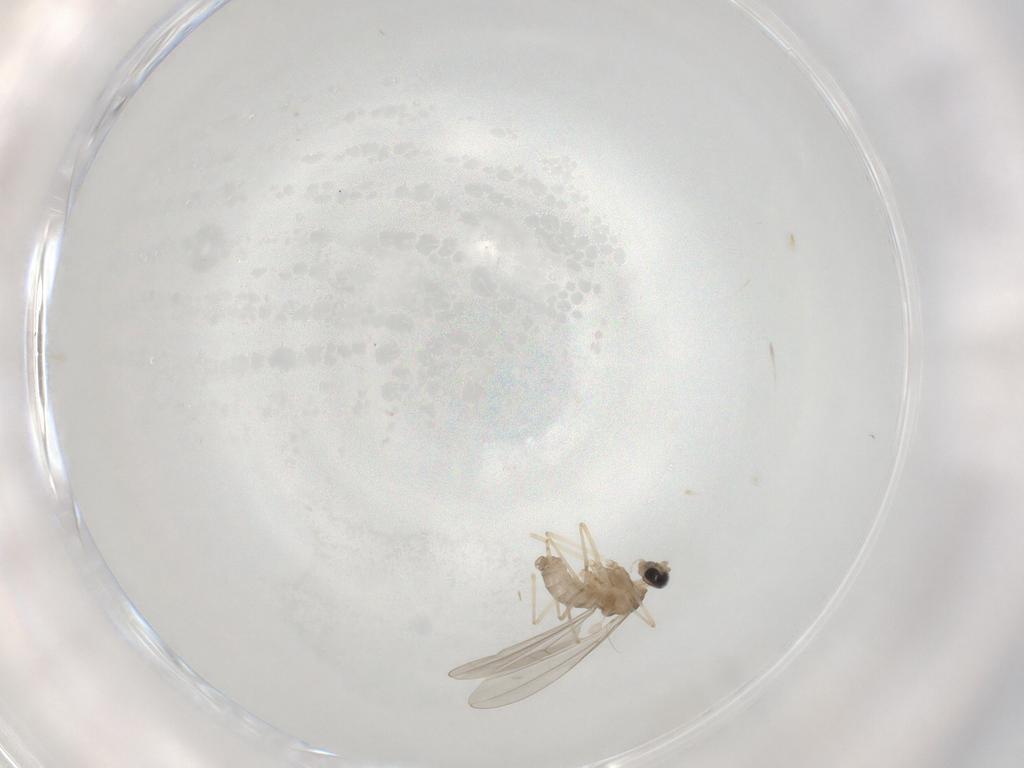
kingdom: Animalia
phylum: Arthropoda
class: Insecta
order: Diptera
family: Cecidomyiidae
